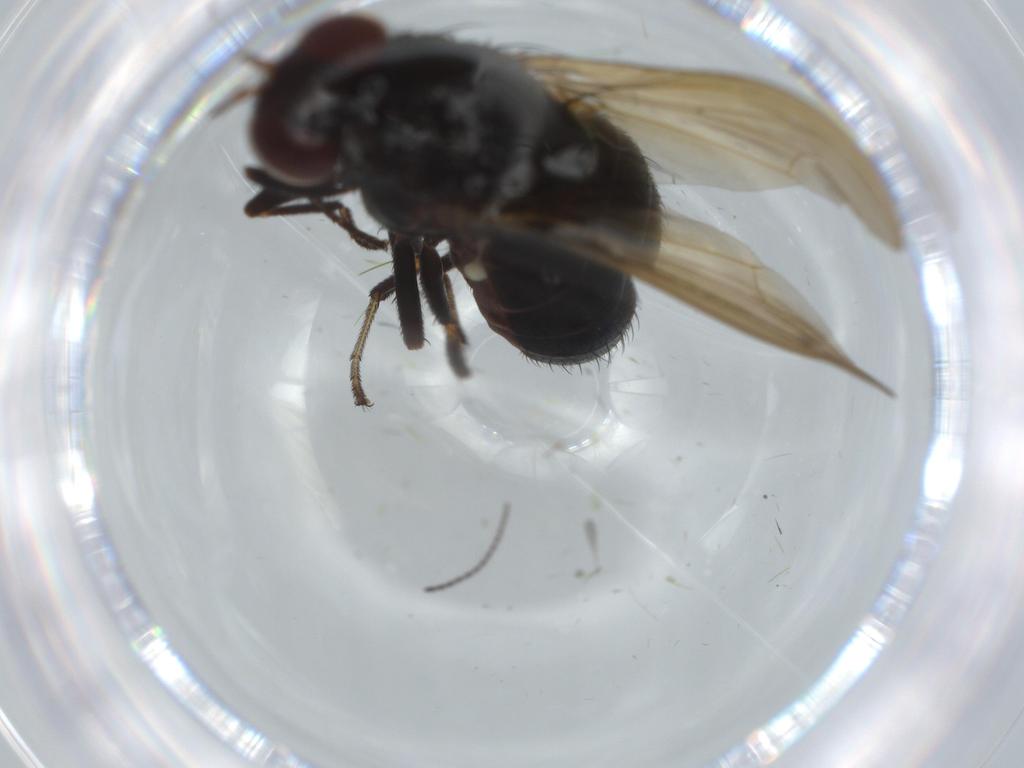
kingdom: Animalia
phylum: Arthropoda
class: Insecta
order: Diptera
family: Lauxaniidae
